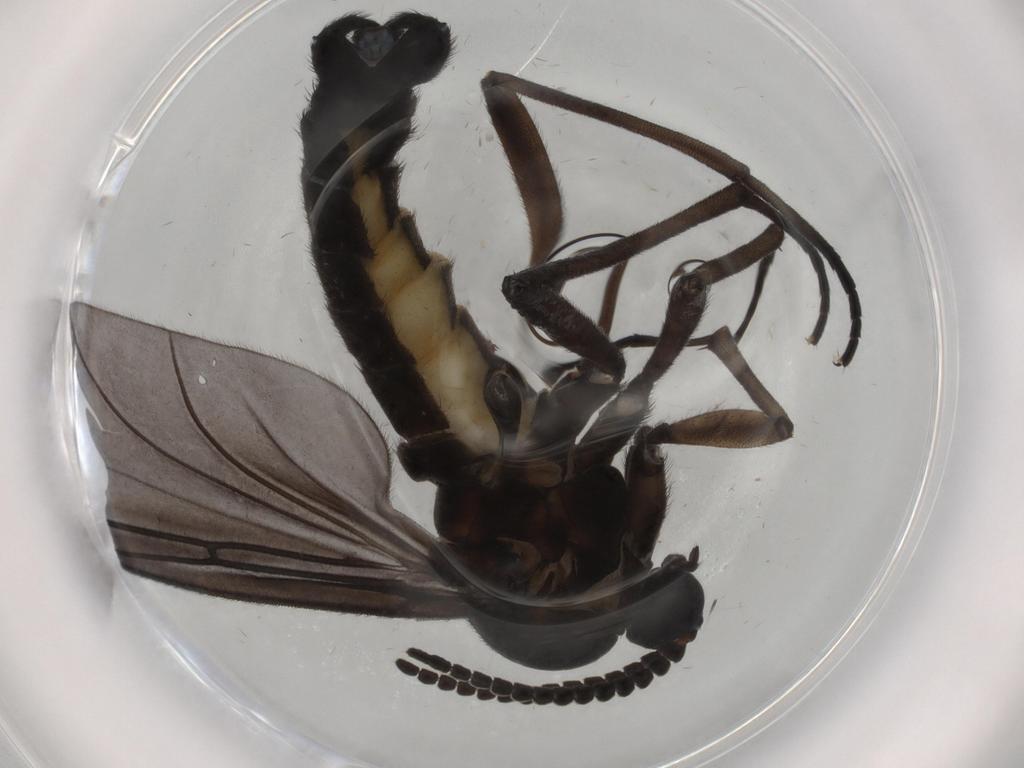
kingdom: Animalia
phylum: Arthropoda
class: Insecta
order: Diptera
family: Sciaridae
